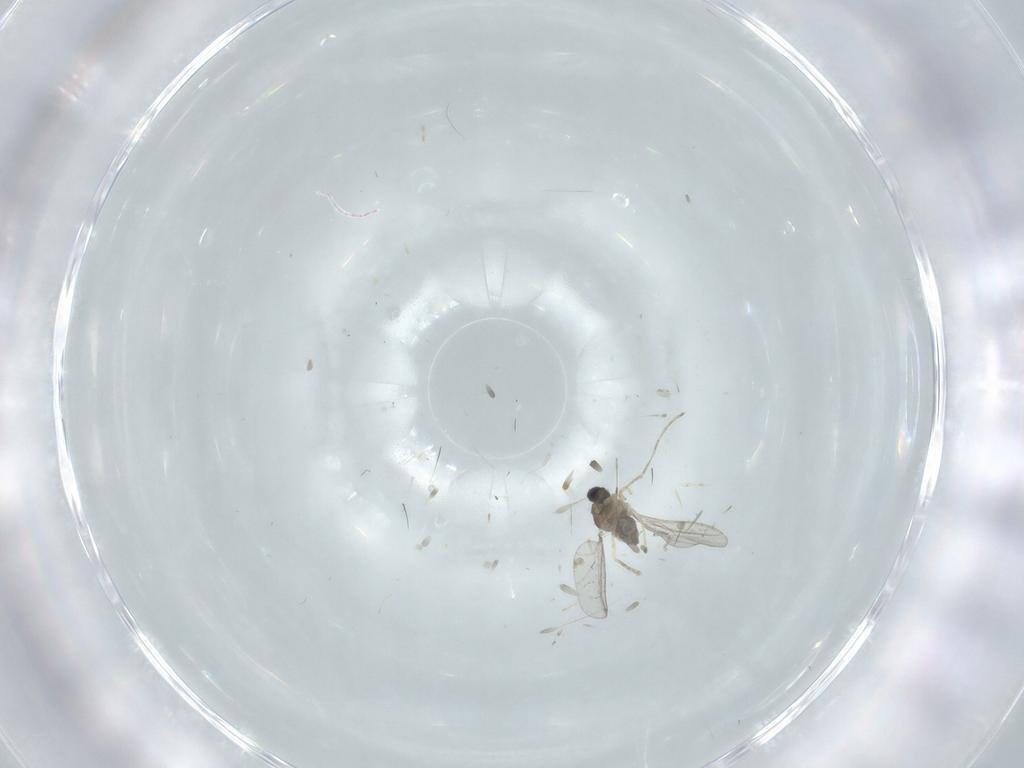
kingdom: Animalia
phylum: Arthropoda
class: Insecta
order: Diptera
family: Cecidomyiidae
